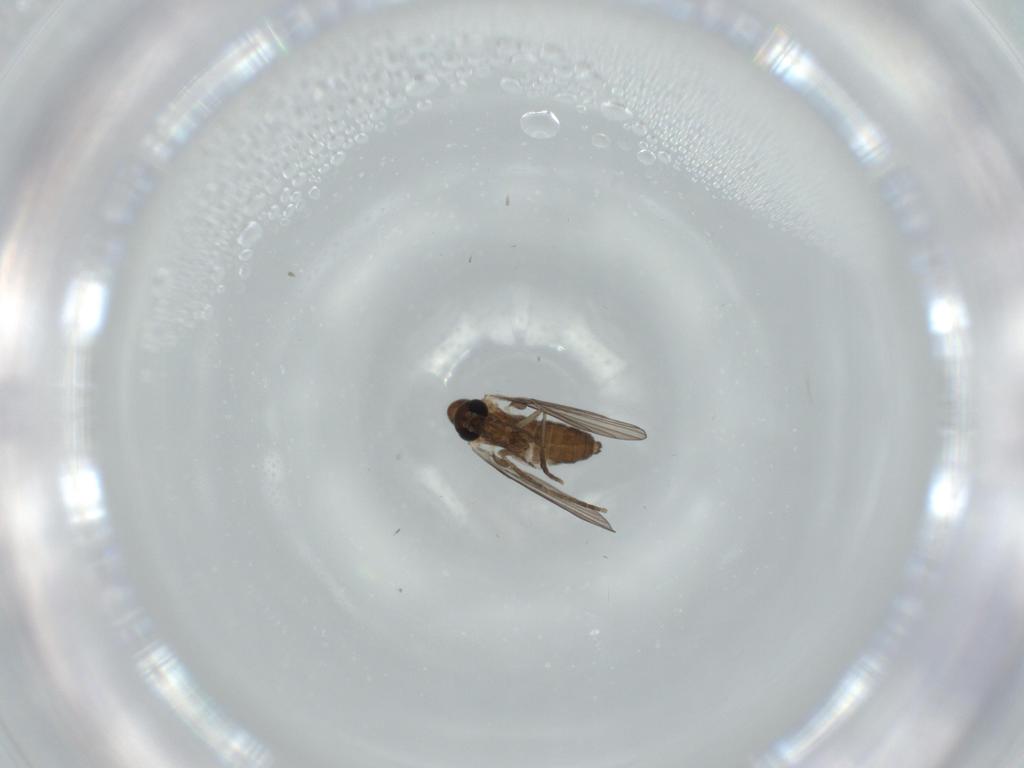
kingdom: Animalia
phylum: Arthropoda
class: Insecta
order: Diptera
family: Psychodidae
